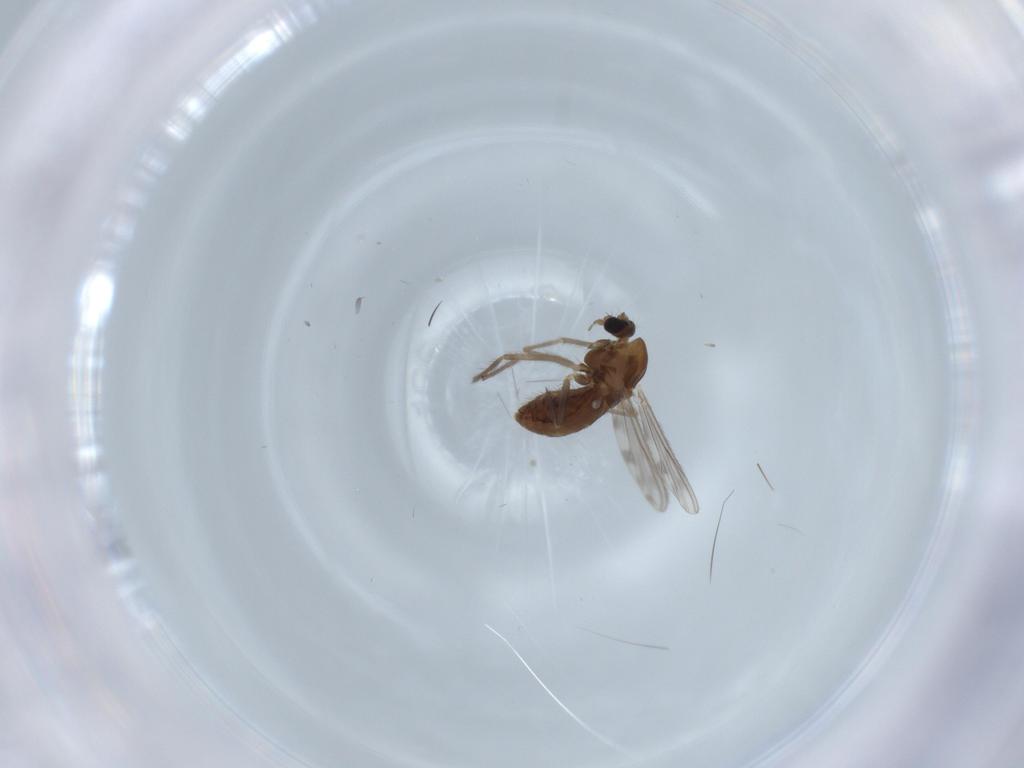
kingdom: Animalia
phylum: Arthropoda
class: Insecta
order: Diptera
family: Chironomidae
